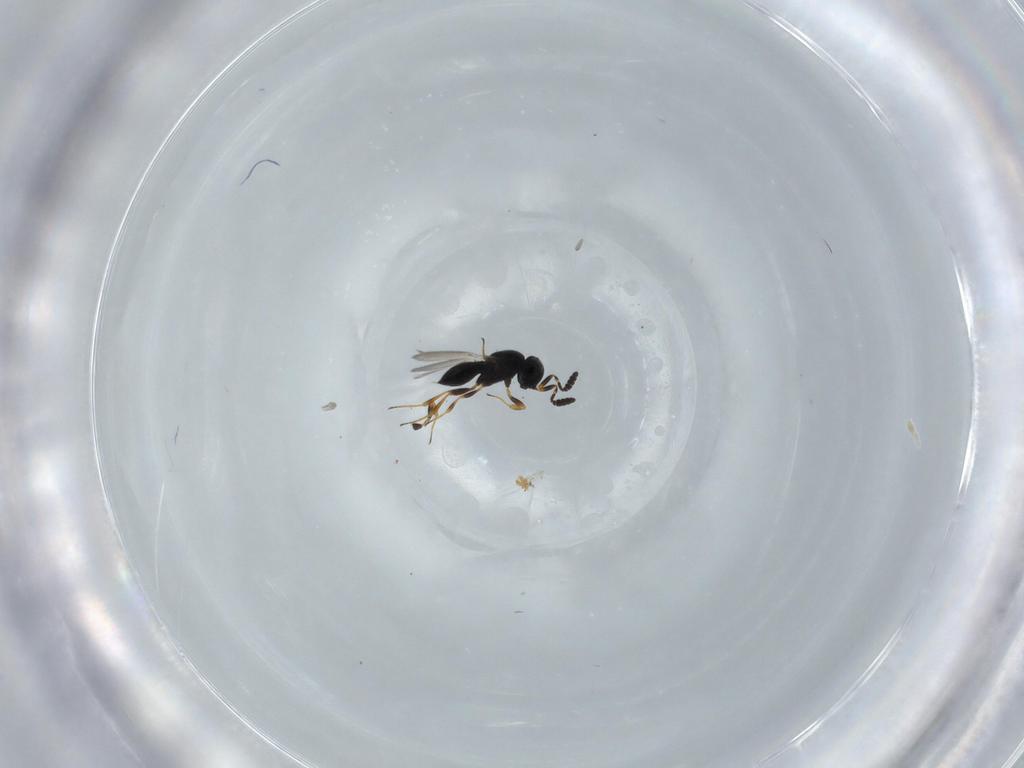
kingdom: Animalia
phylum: Arthropoda
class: Insecta
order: Hymenoptera
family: Scelionidae
